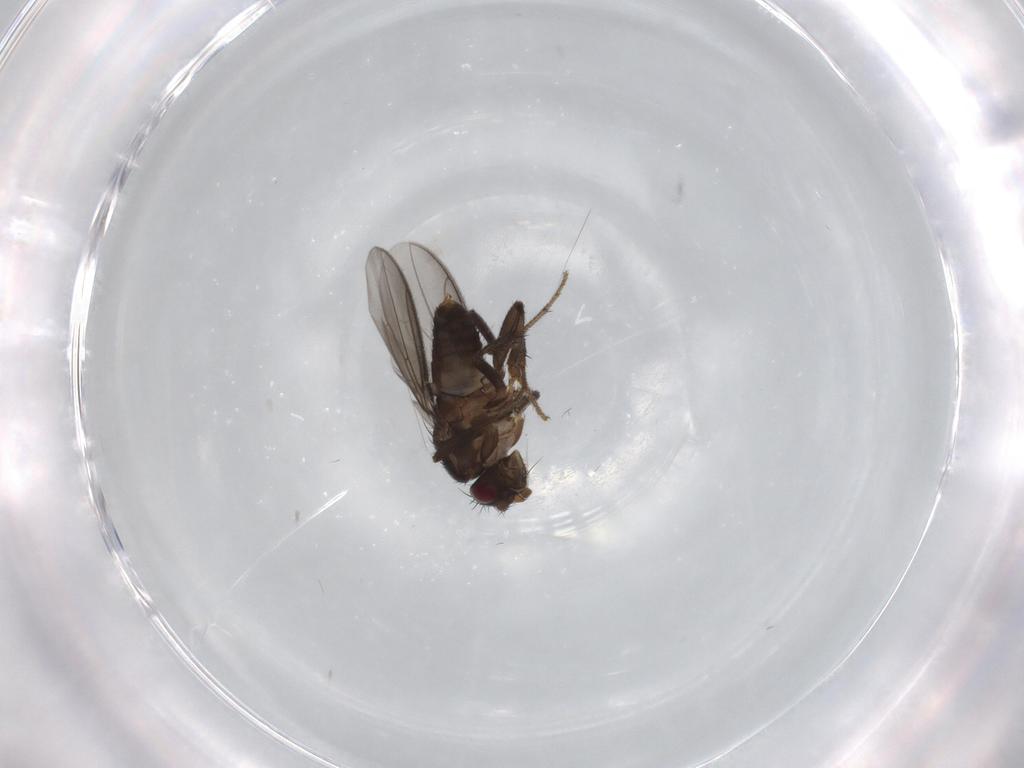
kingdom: Animalia
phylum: Arthropoda
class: Insecta
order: Diptera
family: Sphaeroceridae
